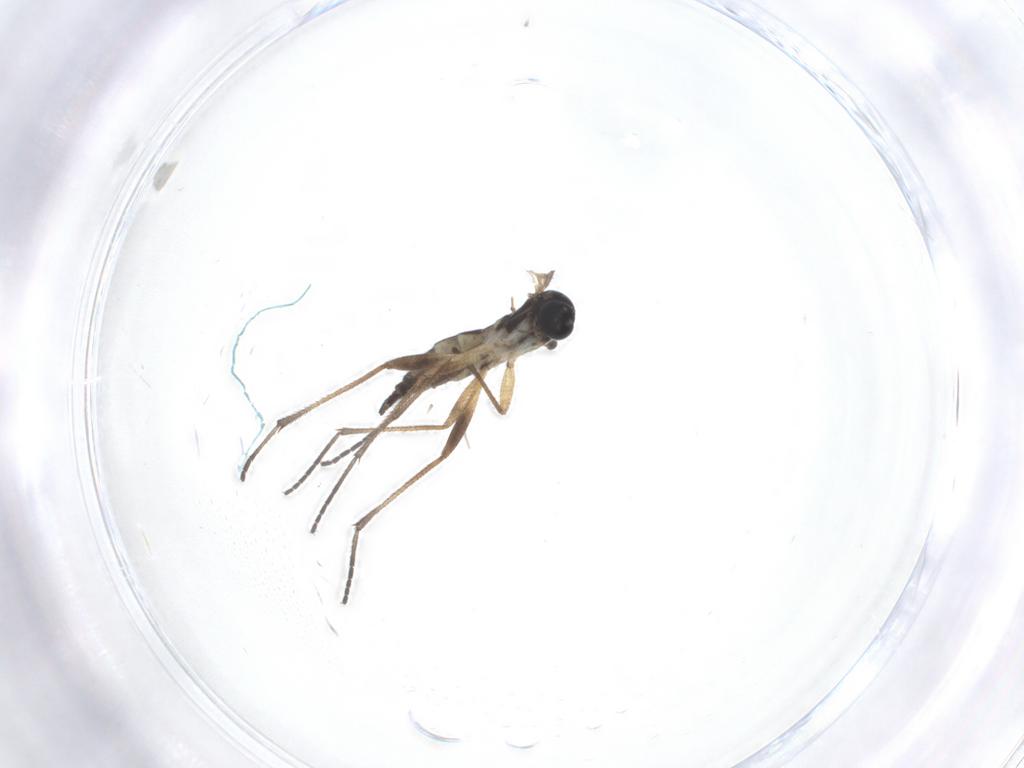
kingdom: Animalia
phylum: Arthropoda
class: Insecta
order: Diptera
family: Sciaridae
